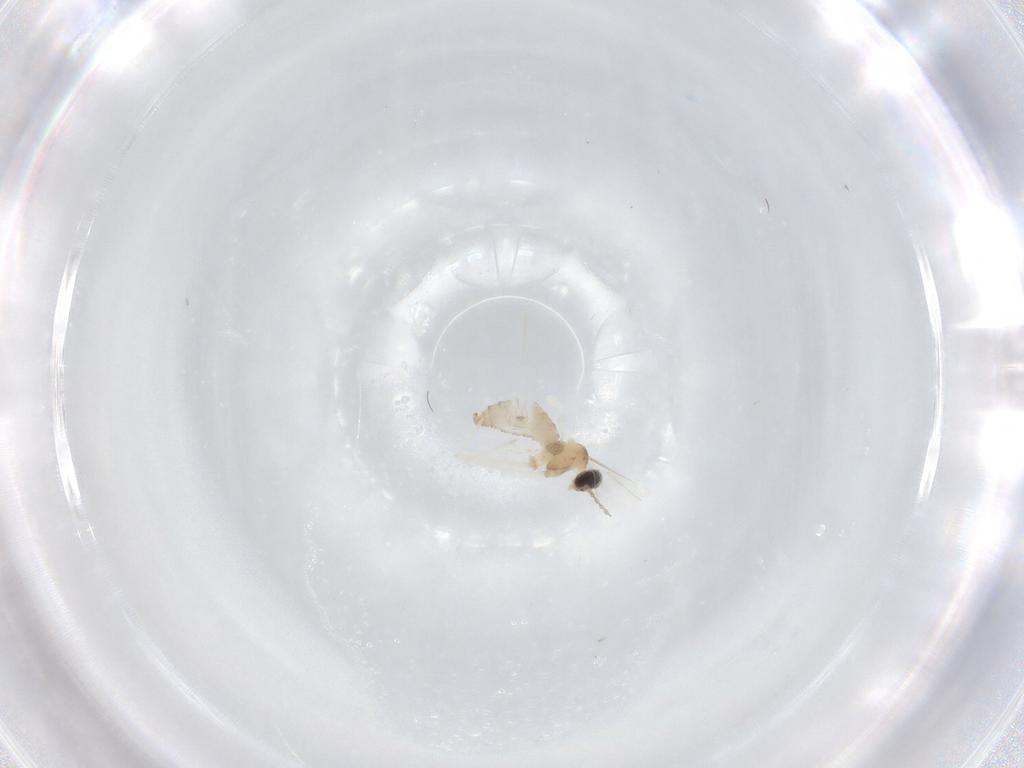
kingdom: Animalia
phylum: Arthropoda
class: Insecta
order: Diptera
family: Cecidomyiidae
